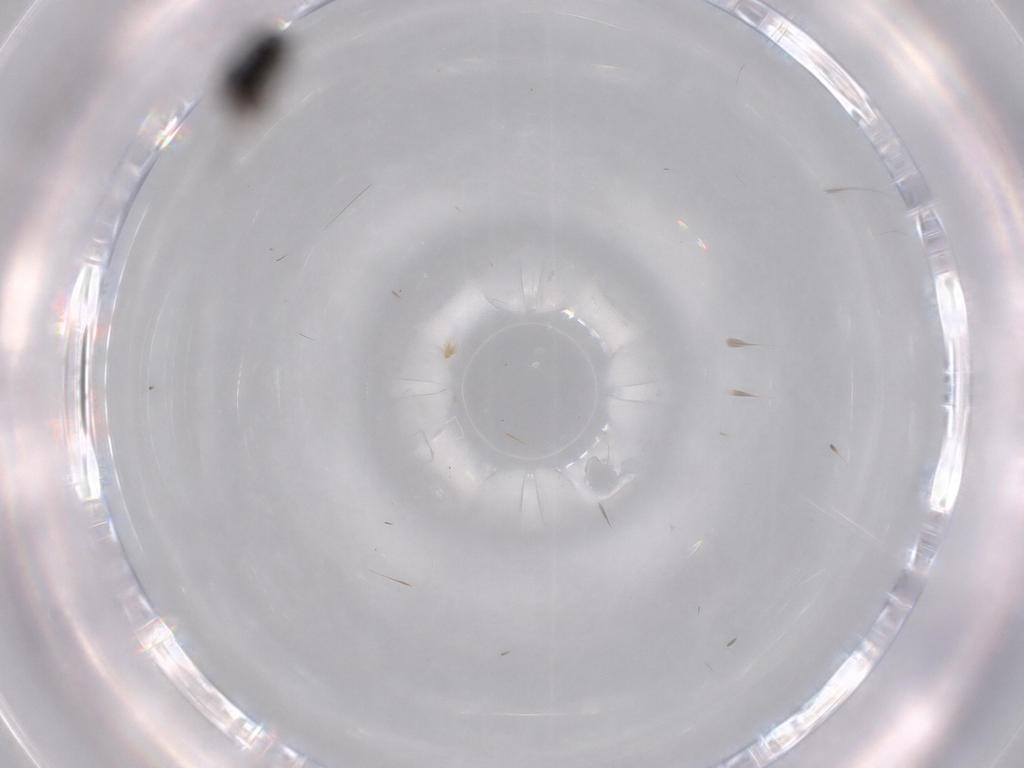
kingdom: Animalia
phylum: Arthropoda
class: Insecta
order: Diptera
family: Phoridae
